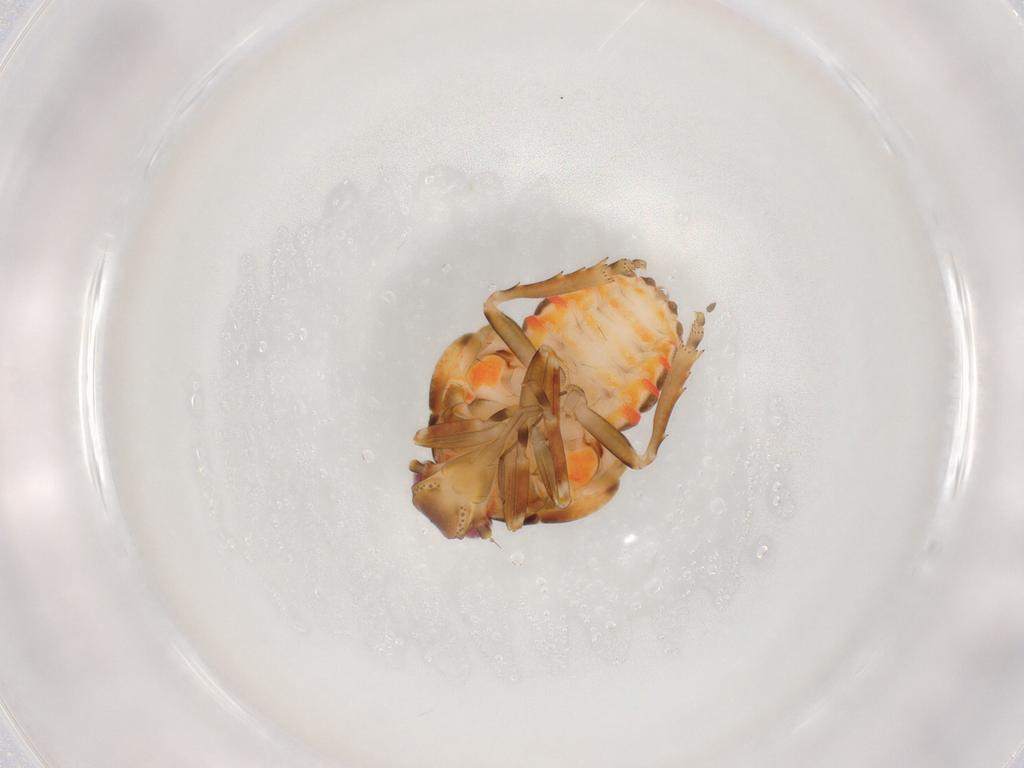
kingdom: Animalia
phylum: Arthropoda
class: Insecta
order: Hemiptera
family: Flatidae
